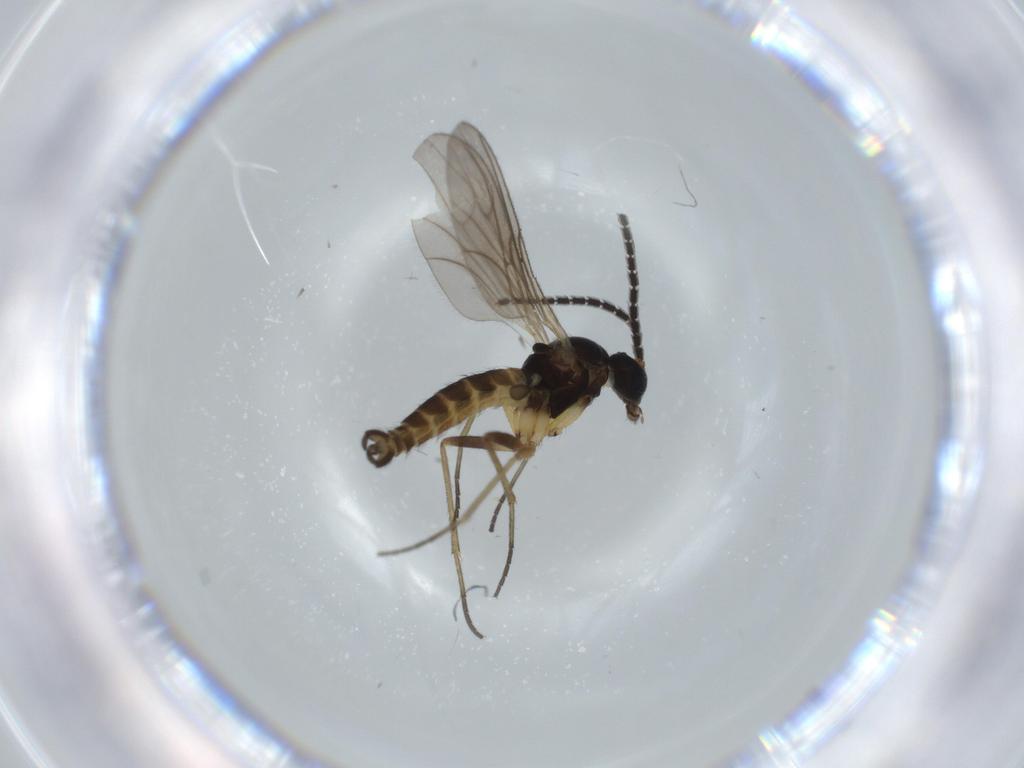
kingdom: Animalia
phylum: Arthropoda
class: Insecta
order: Diptera
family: Sciaridae
